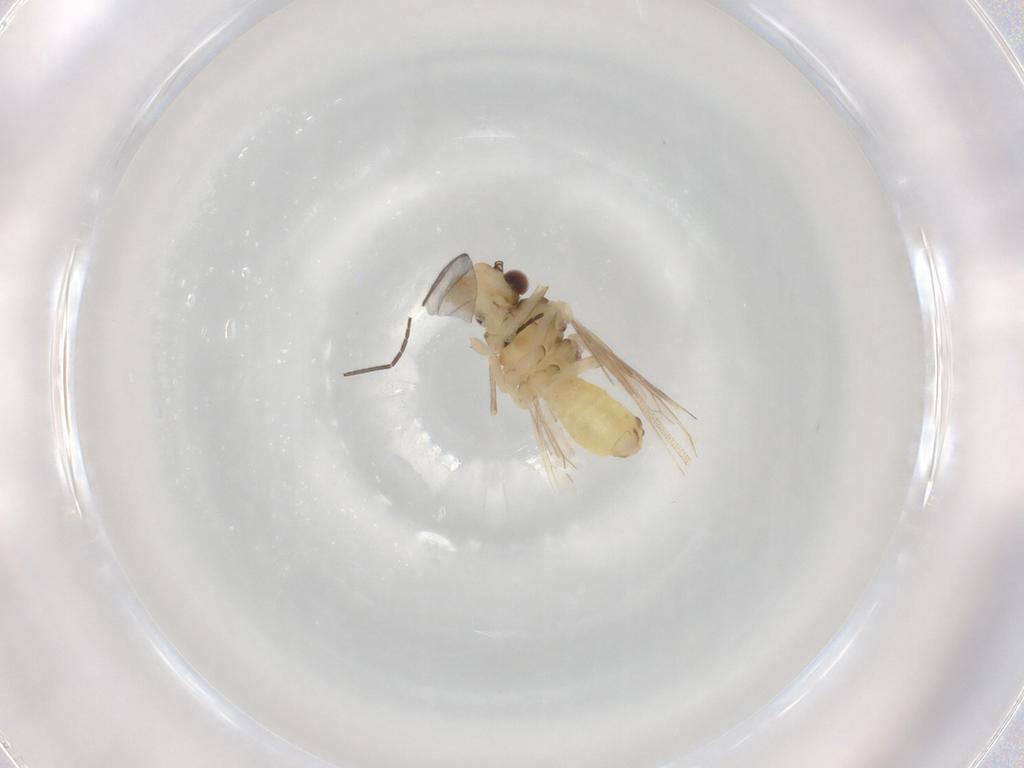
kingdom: Animalia
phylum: Arthropoda
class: Insecta
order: Psocodea
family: Caeciliusidae
